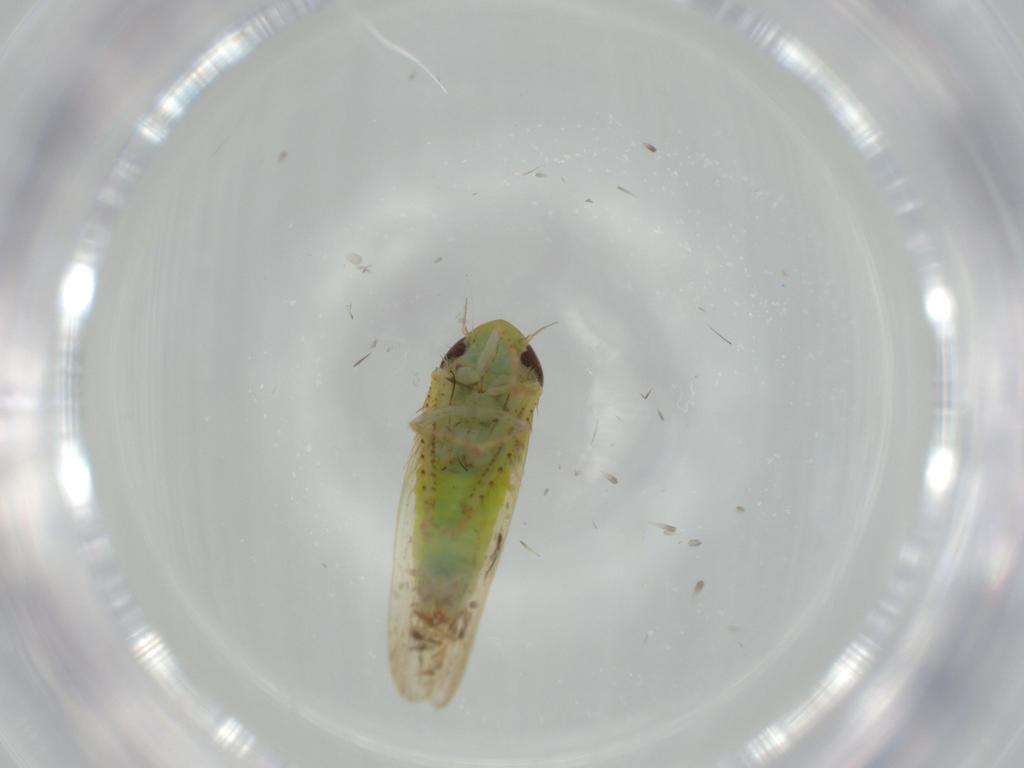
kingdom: Animalia
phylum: Arthropoda
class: Insecta
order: Hemiptera
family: Cicadellidae
